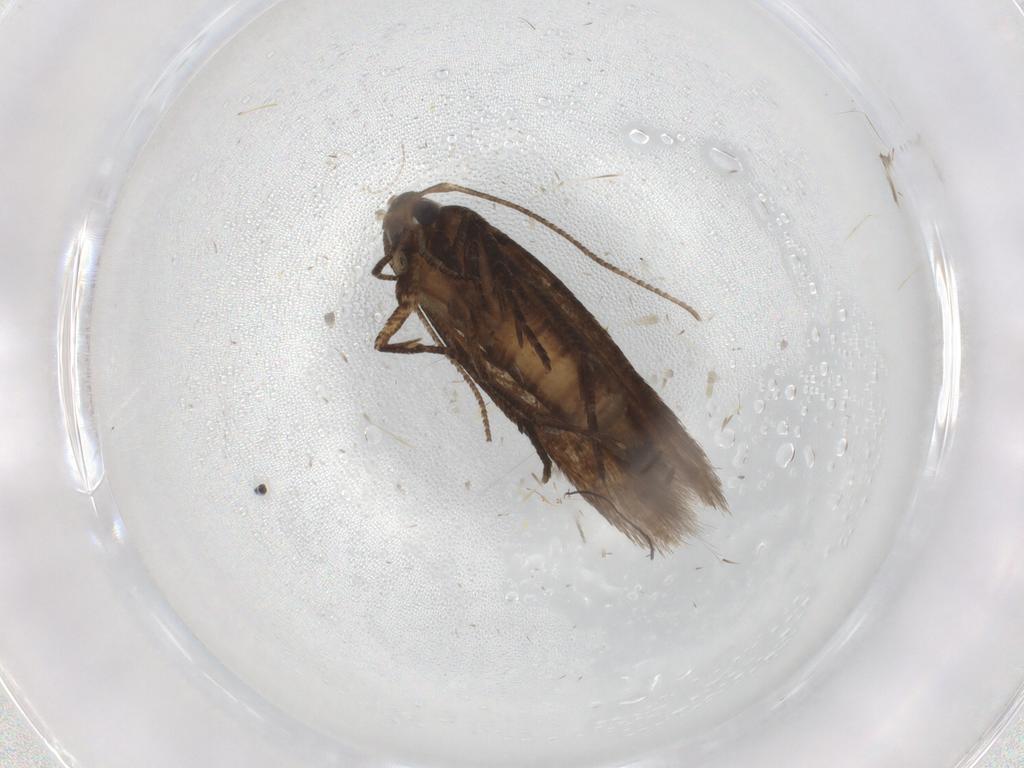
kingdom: Animalia
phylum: Arthropoda
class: Insecta
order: Lepidoptera
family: Cosmopterigidae
